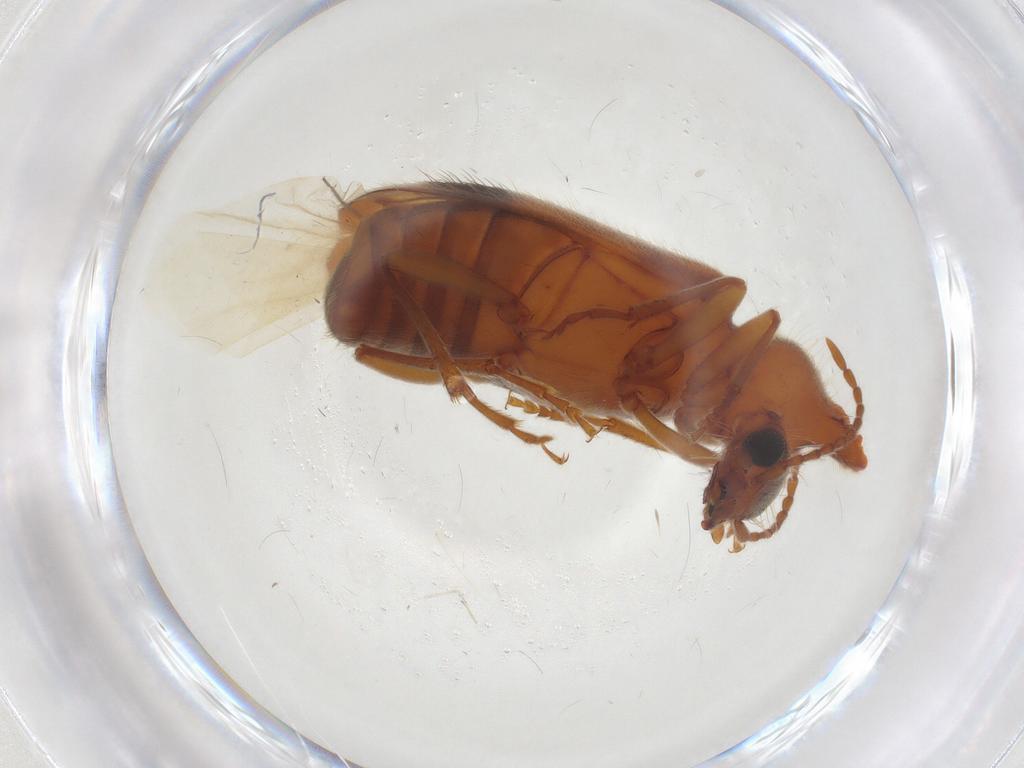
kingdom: Animalia
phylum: Arthropoda
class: Insecta
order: Coleoptera
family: Anthicidae
